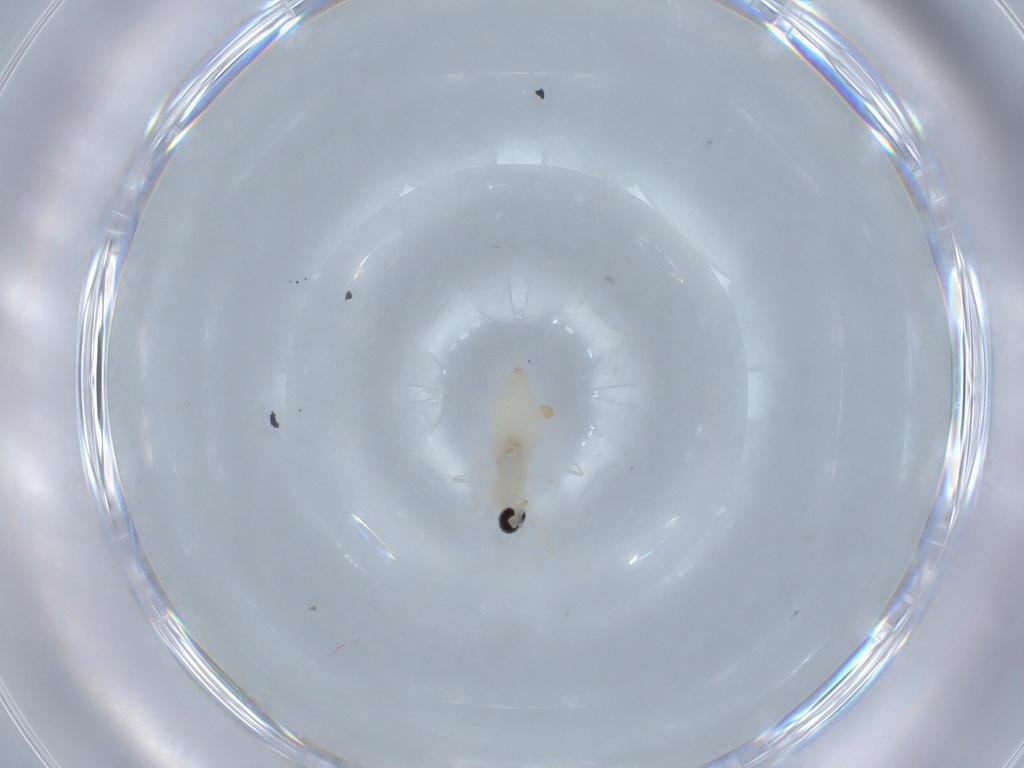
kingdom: Animalia
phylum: Arthropoda
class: Insecta
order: Diptera
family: Cecidomyiidae
